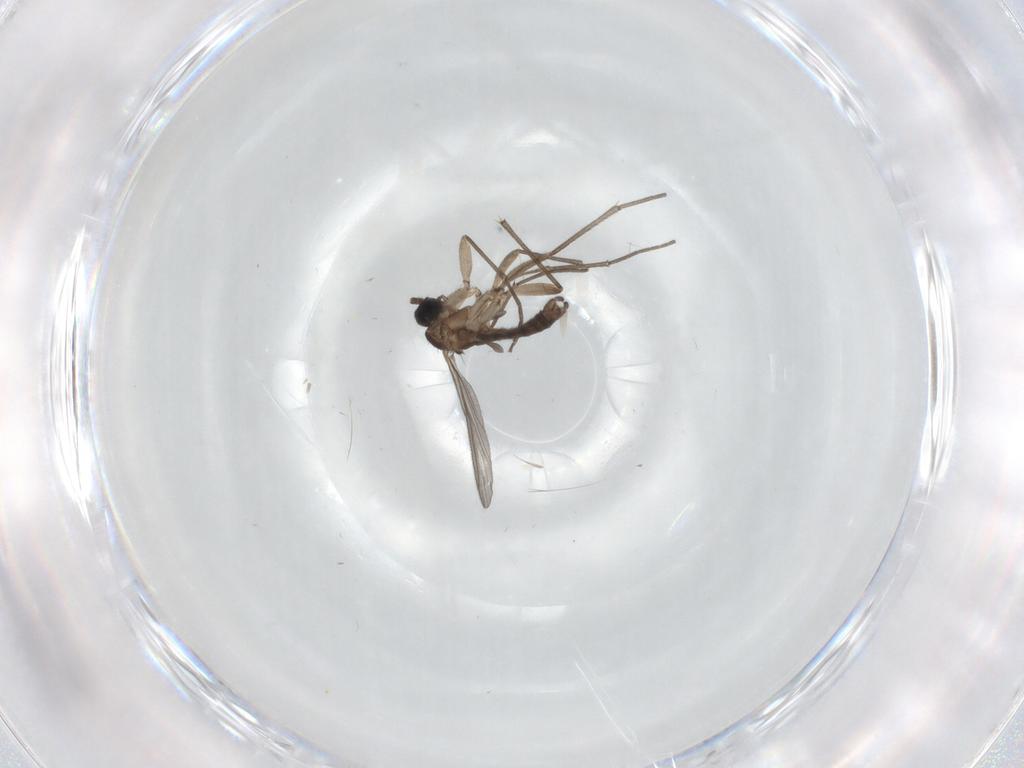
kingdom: Animalia
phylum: Arthropoda
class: Insecta
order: Diptera
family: Sciaridae
